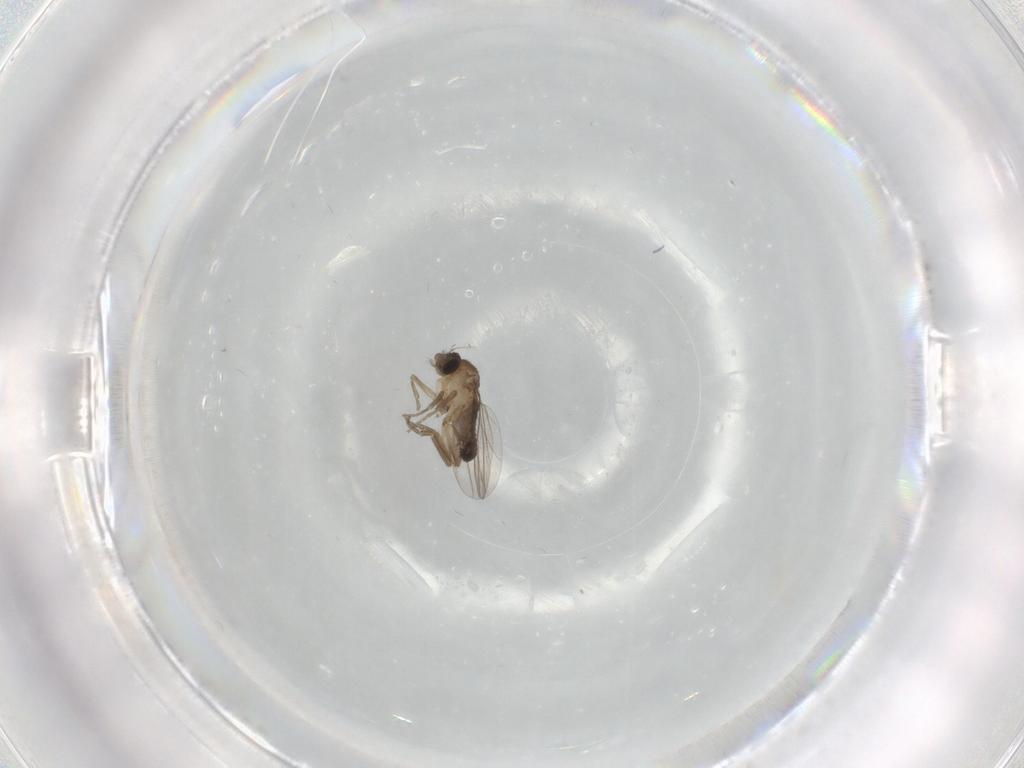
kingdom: Animalia
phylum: Arthropoda
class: Insecta
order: Diptera
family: Phoridae
